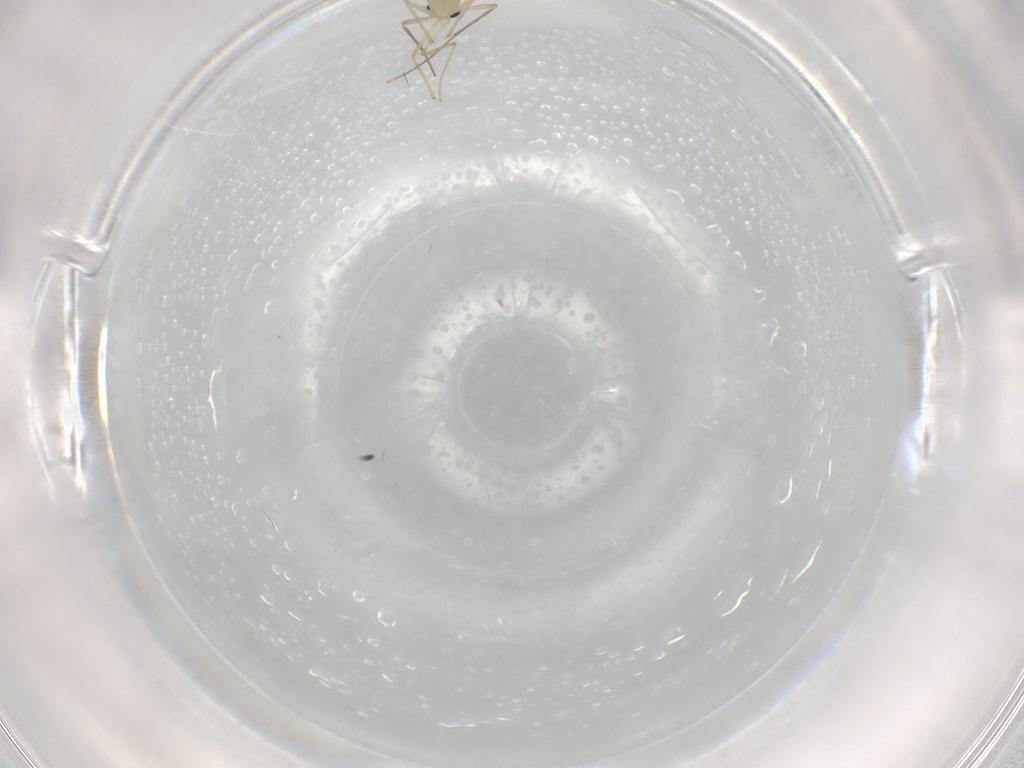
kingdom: Animalia
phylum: Arthropoda
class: Insecta
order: Diptera
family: Chironomidae
